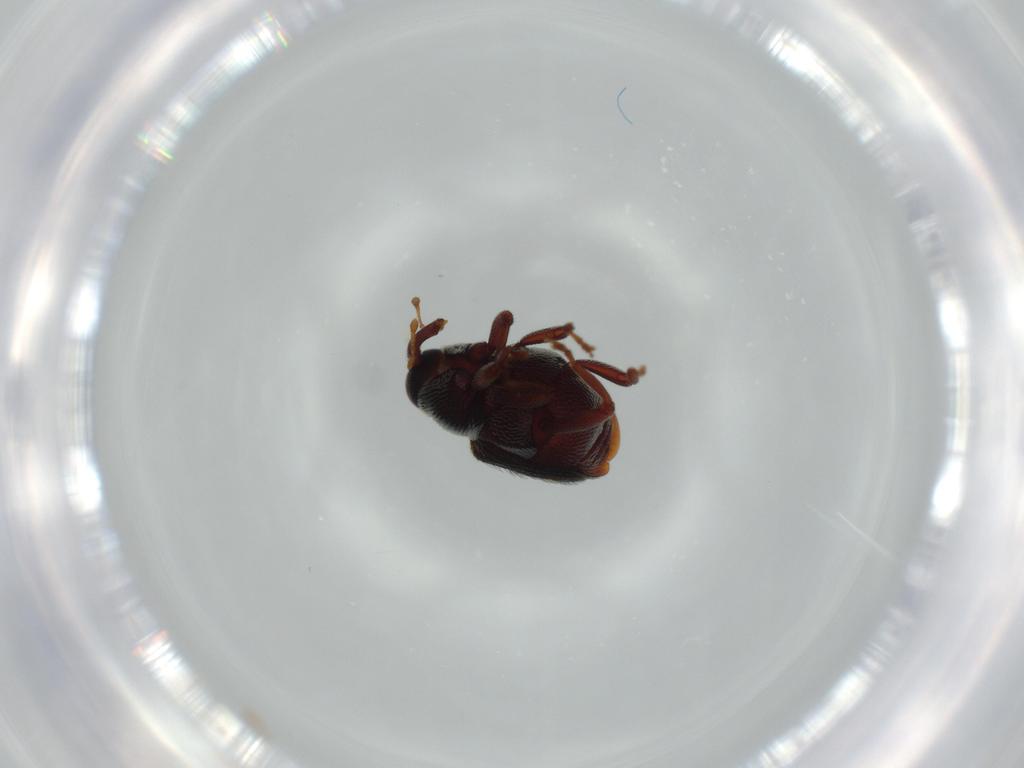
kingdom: Animalia
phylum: Arthropoda
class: Insecta
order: Coleoptera
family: Curculionidae
